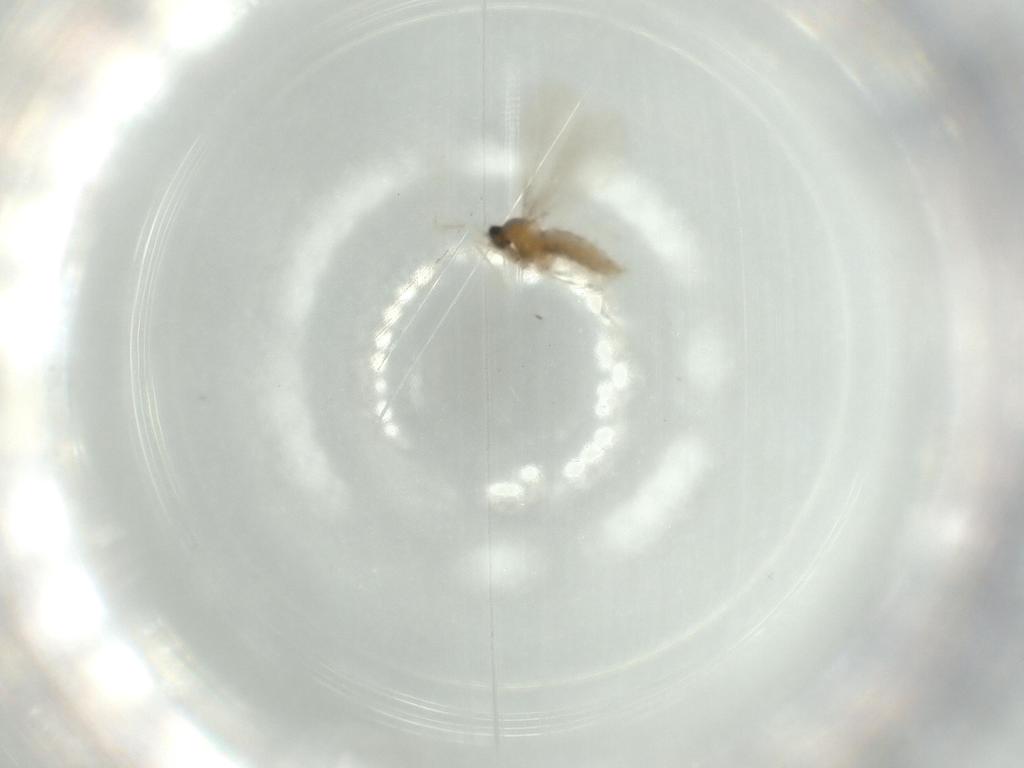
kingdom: Animalia
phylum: Arthropoda
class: Insecta
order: Diptera
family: Cecidomyiidae
